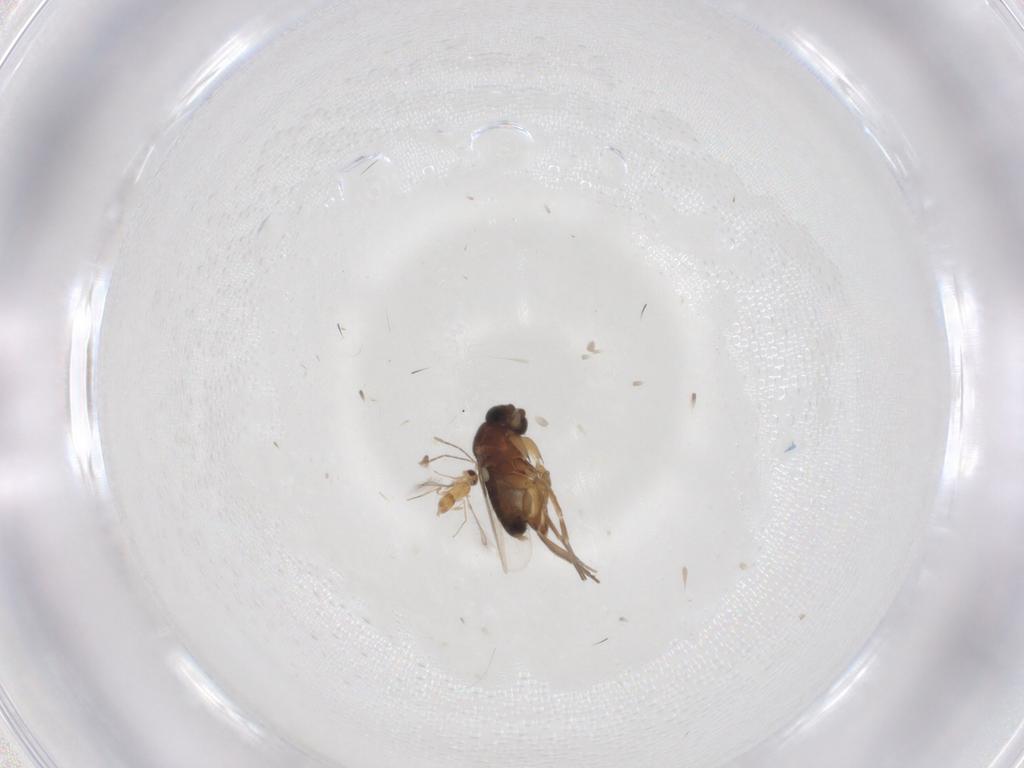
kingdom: Animalia
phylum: Arthropoda
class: Insecta
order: Diptera
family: Phoridae
